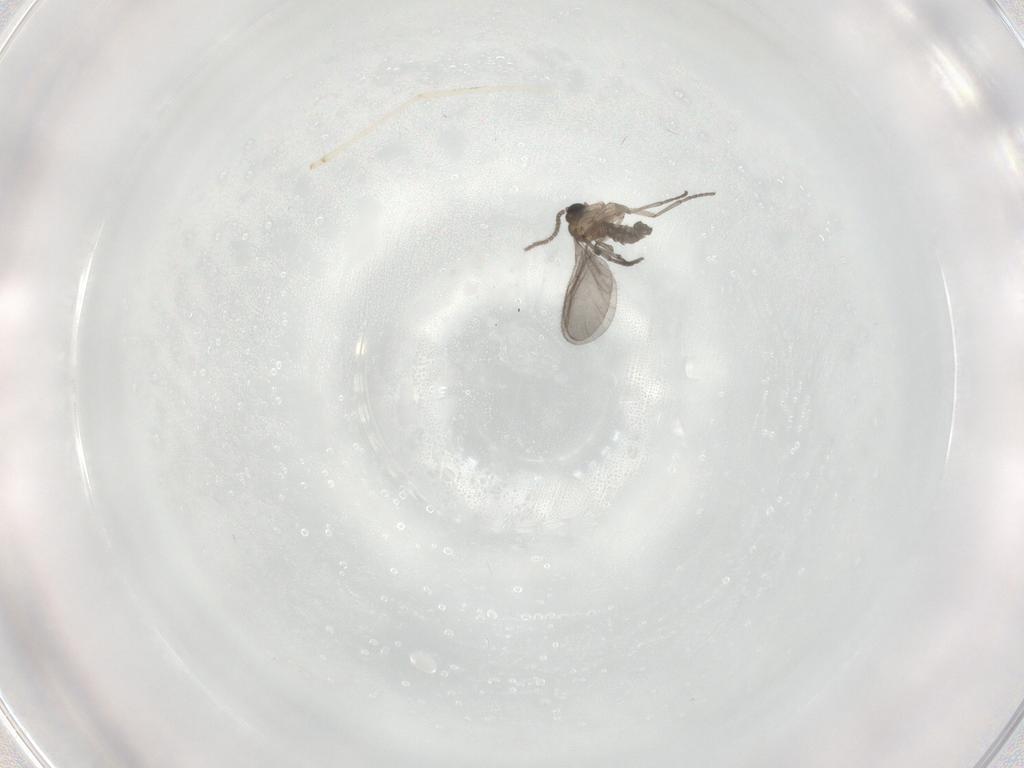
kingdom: Animalia
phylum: Arthropoda
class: Insecta
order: Diptera
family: Sciaridae
